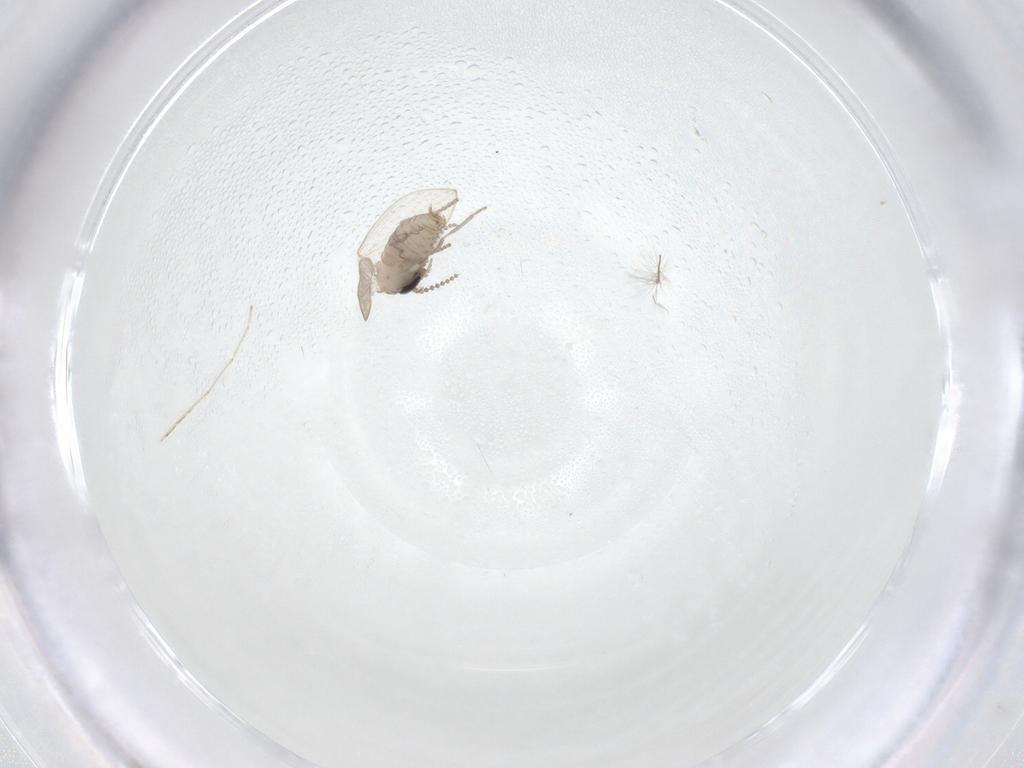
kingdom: Animalia
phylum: Arthropoda
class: Insecta
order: Diptera
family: Psychodidae
